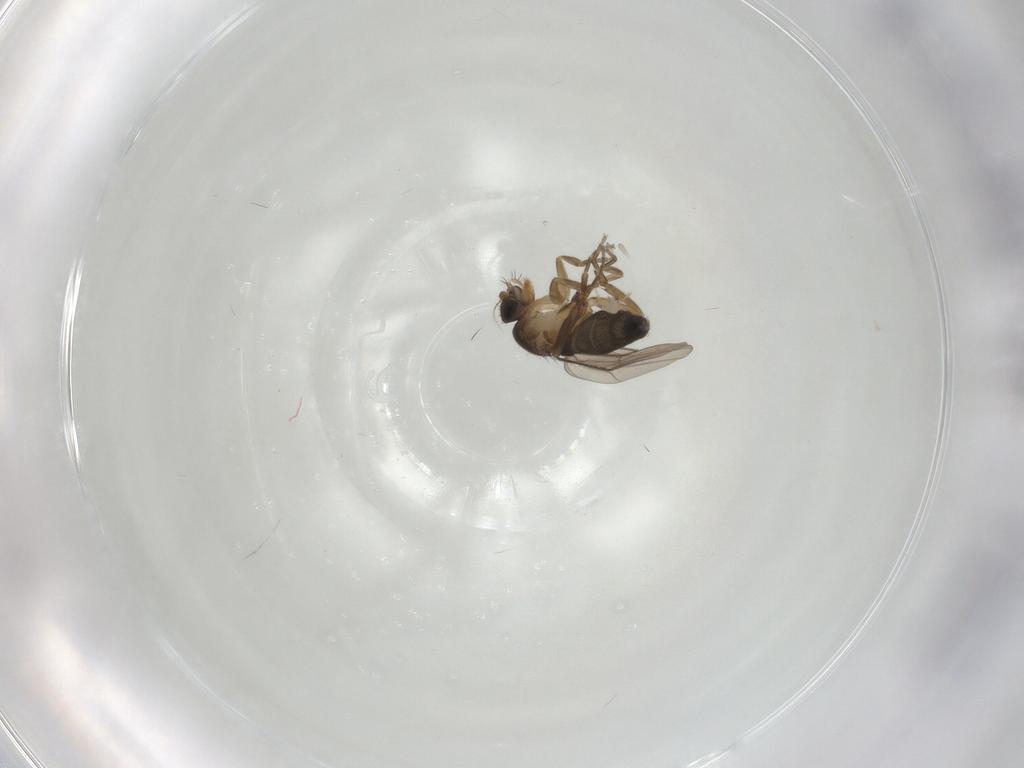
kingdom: Animalia
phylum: Arthropoda
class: Insecta
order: Diptera
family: Phoridae
